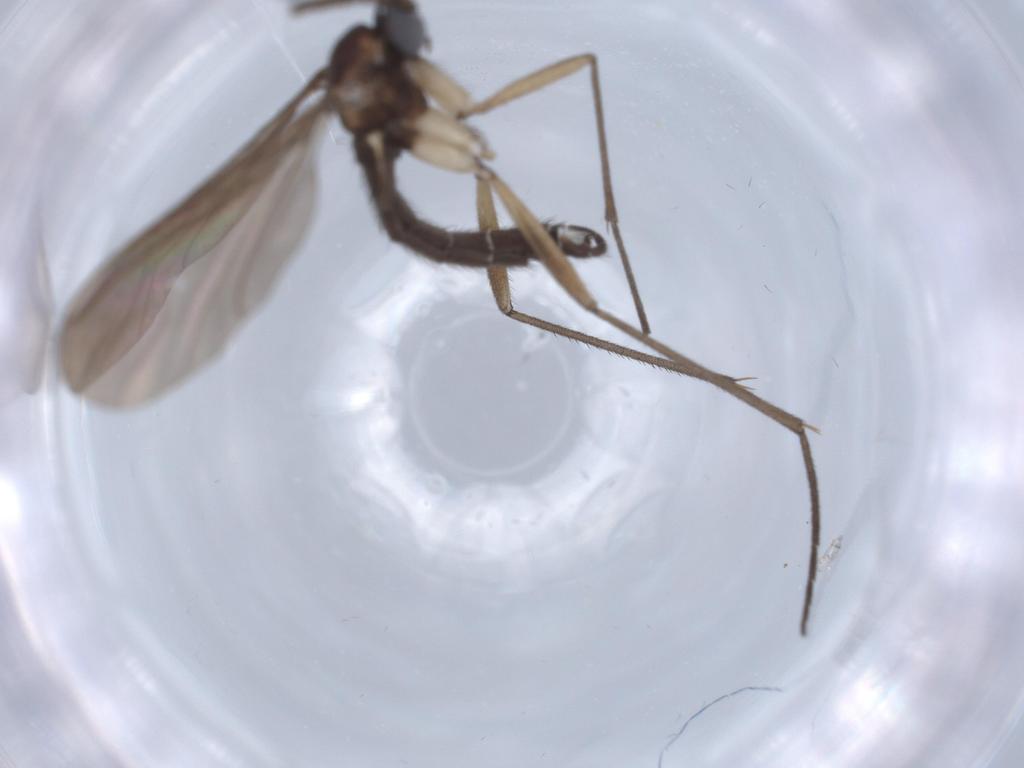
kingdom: Animalia
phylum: Arthropoda
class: Insecta
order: Diptera
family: Sciaridae
